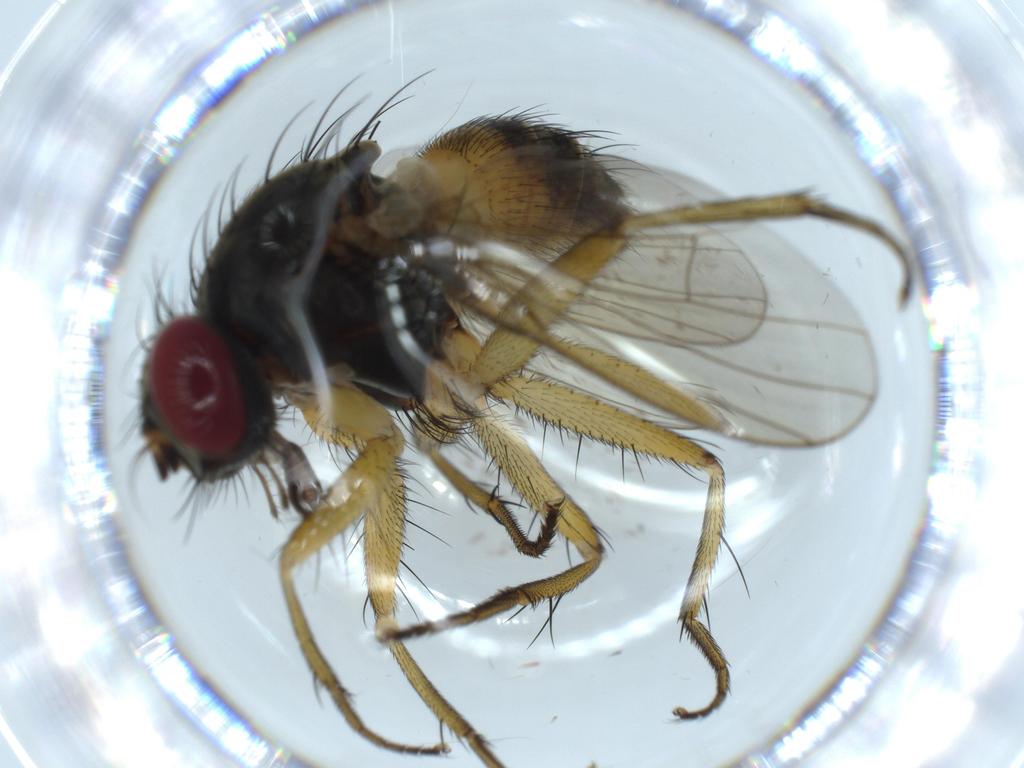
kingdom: Animalia
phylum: Arthropoda
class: Insecta
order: Diptera
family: Muscidae
